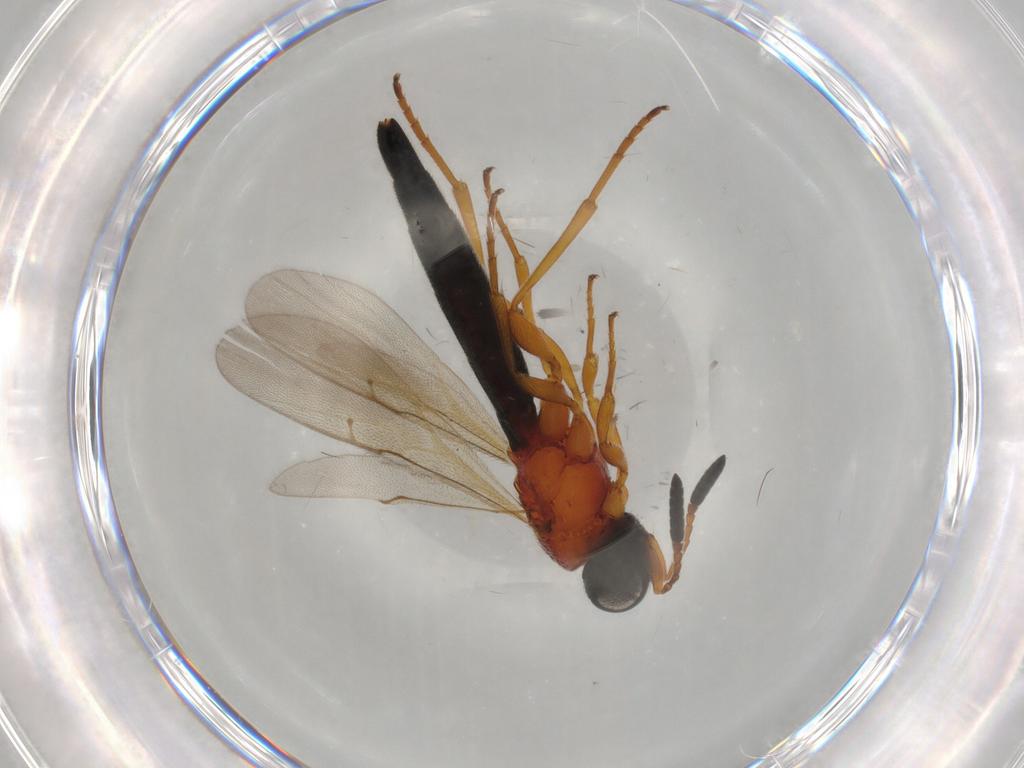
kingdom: Animalia
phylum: Arthropoda
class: Insecta
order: Hymenoptera
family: Scelionidae
